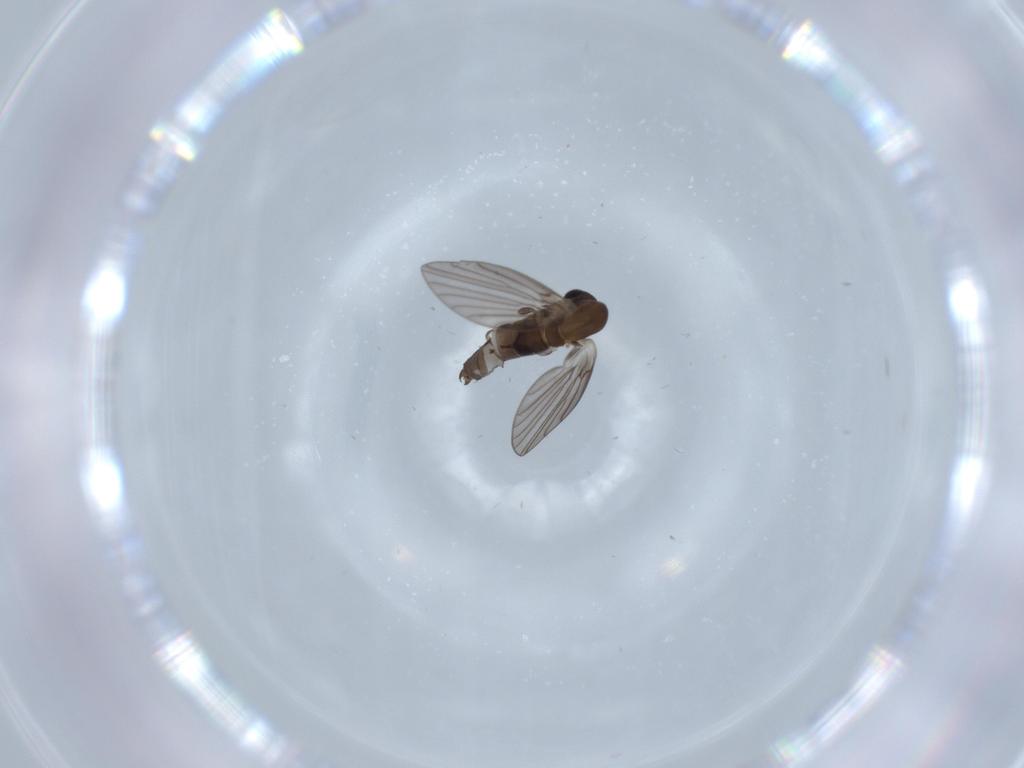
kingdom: Animalia
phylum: Arthropoda
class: Insecta
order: Diptera
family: Psychodidae
